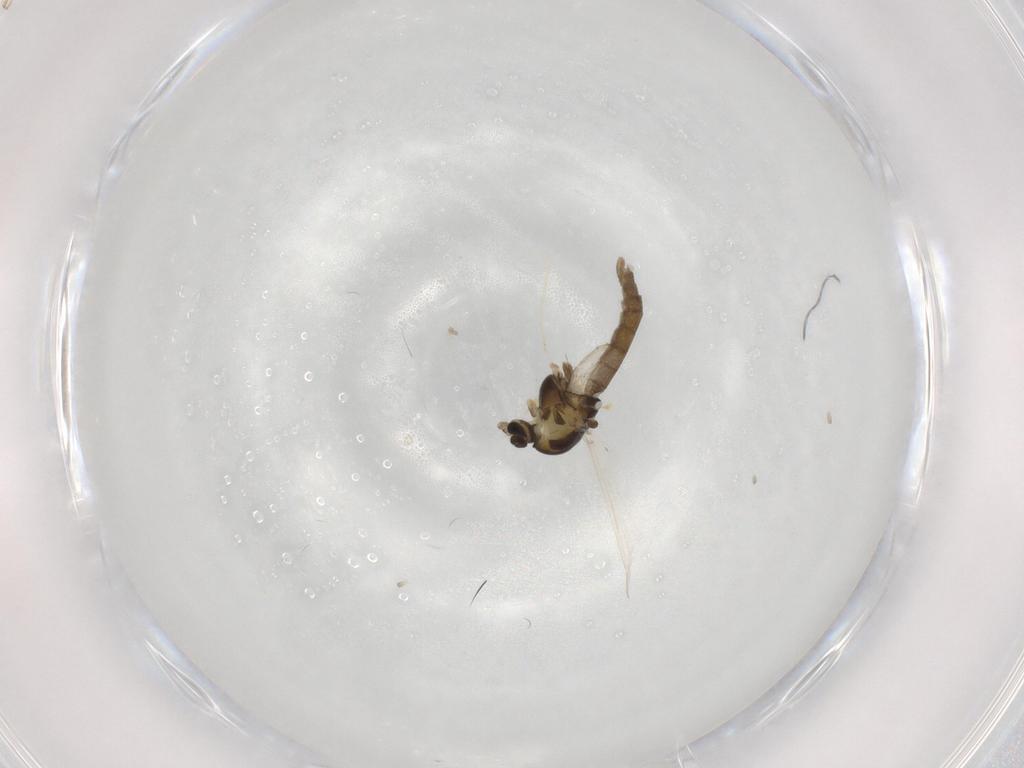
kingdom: Animalia
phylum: Arthropoda
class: Insecta
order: Diptera
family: Chironomidae
